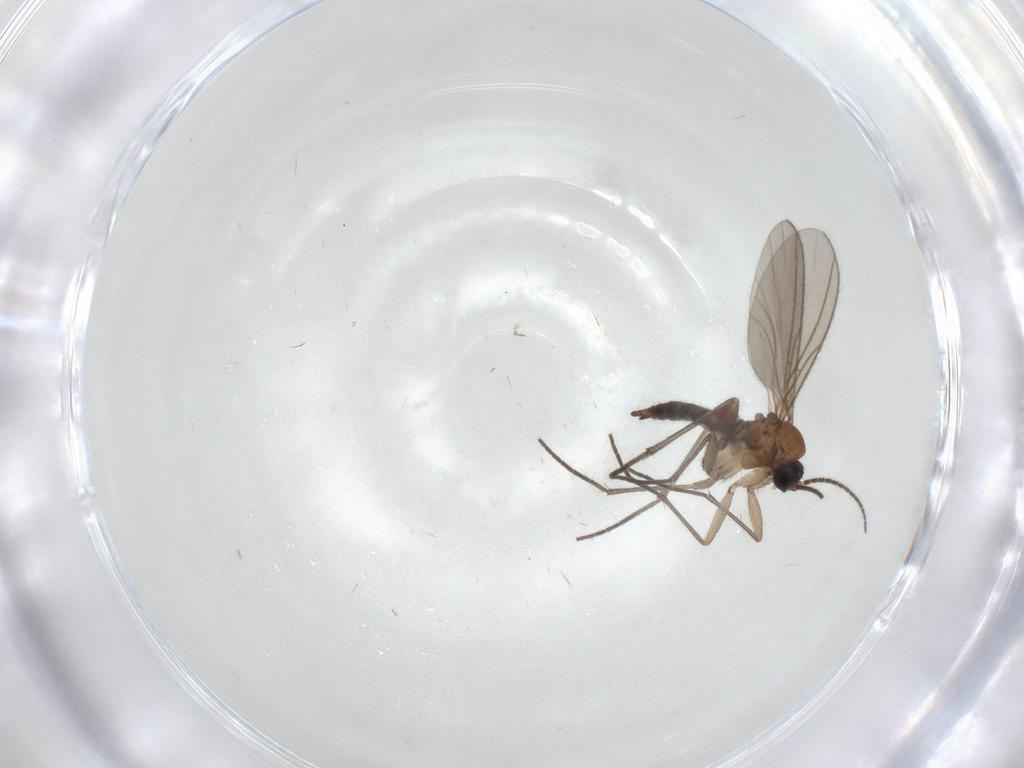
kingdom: Animalia
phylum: Arthropoda
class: Insecta
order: Diptera
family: Sciaridae
